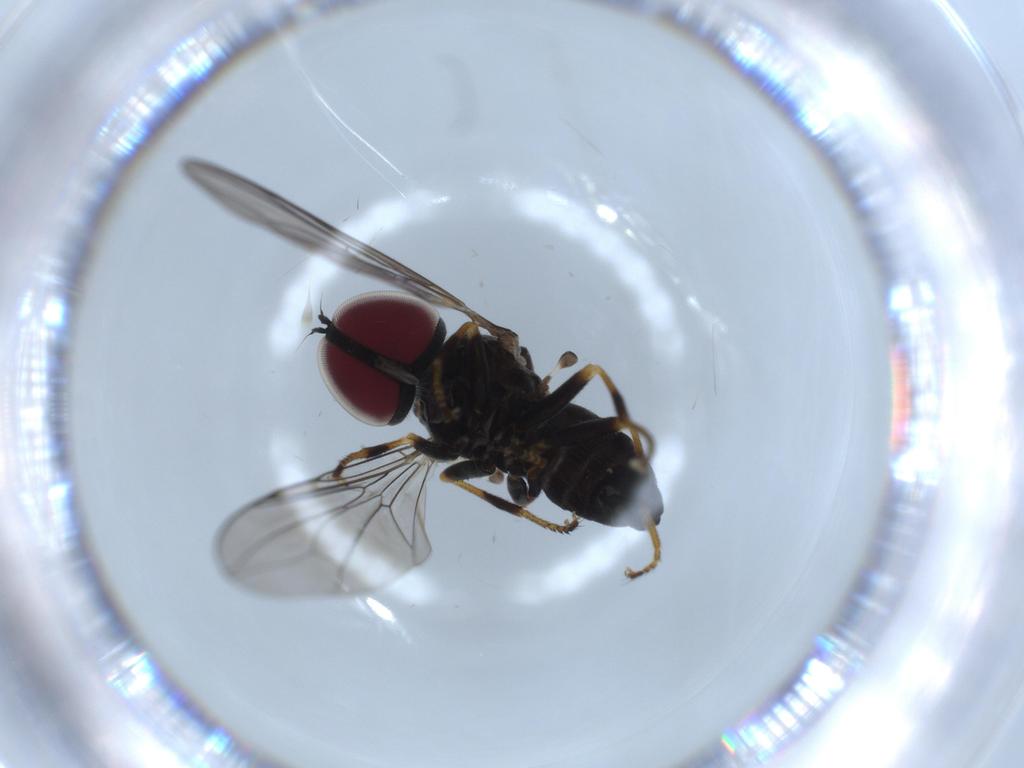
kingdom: Animalia
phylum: Arthropoda
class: Insecta
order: Diptera
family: Pipunculidae
